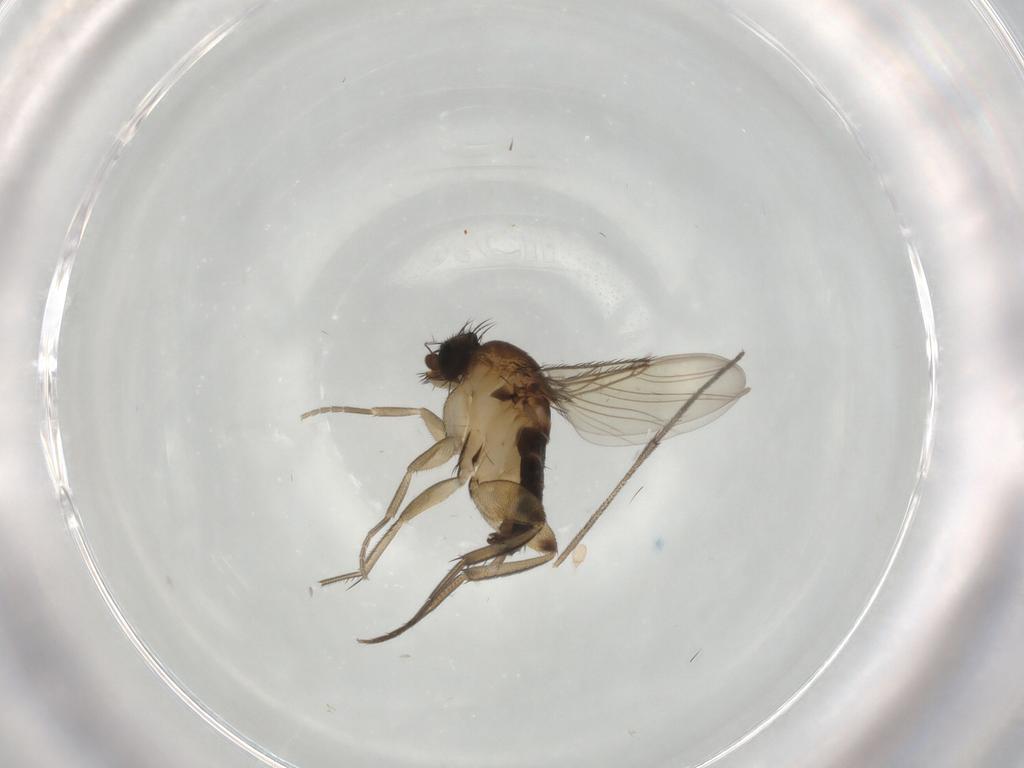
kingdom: Animalia
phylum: Arthropoda
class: Insecta
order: Diptera
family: Phoridae
